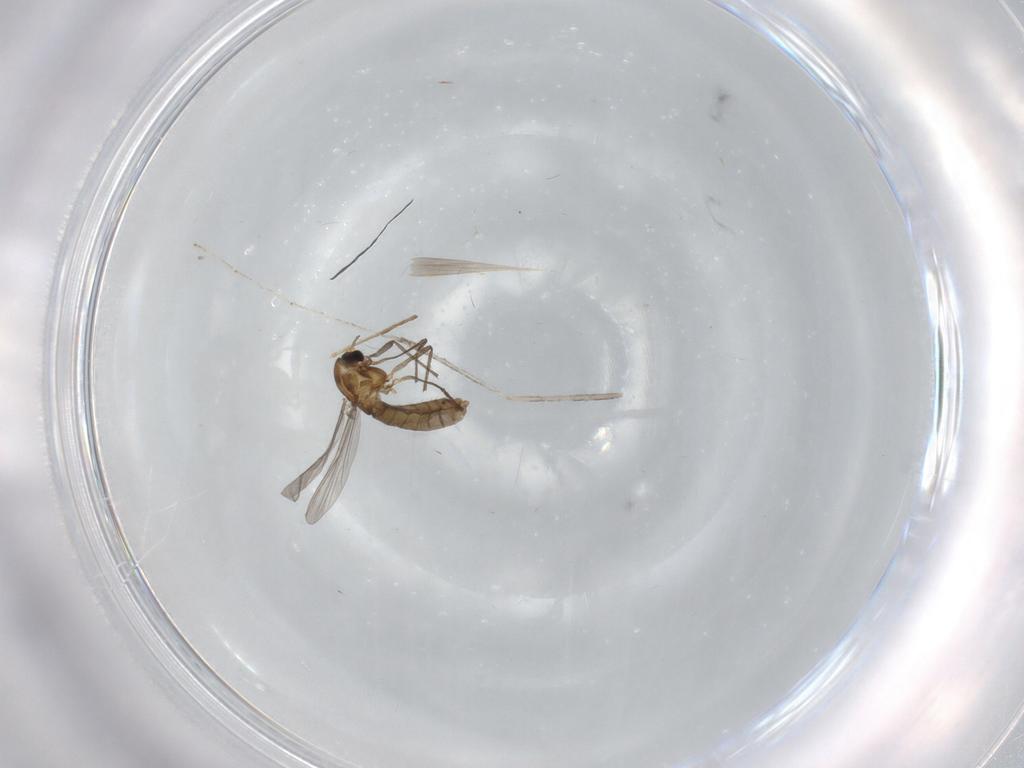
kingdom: Animalia
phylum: Arthropoda
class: Insecta
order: Diptera
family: Cecidomyiidae
